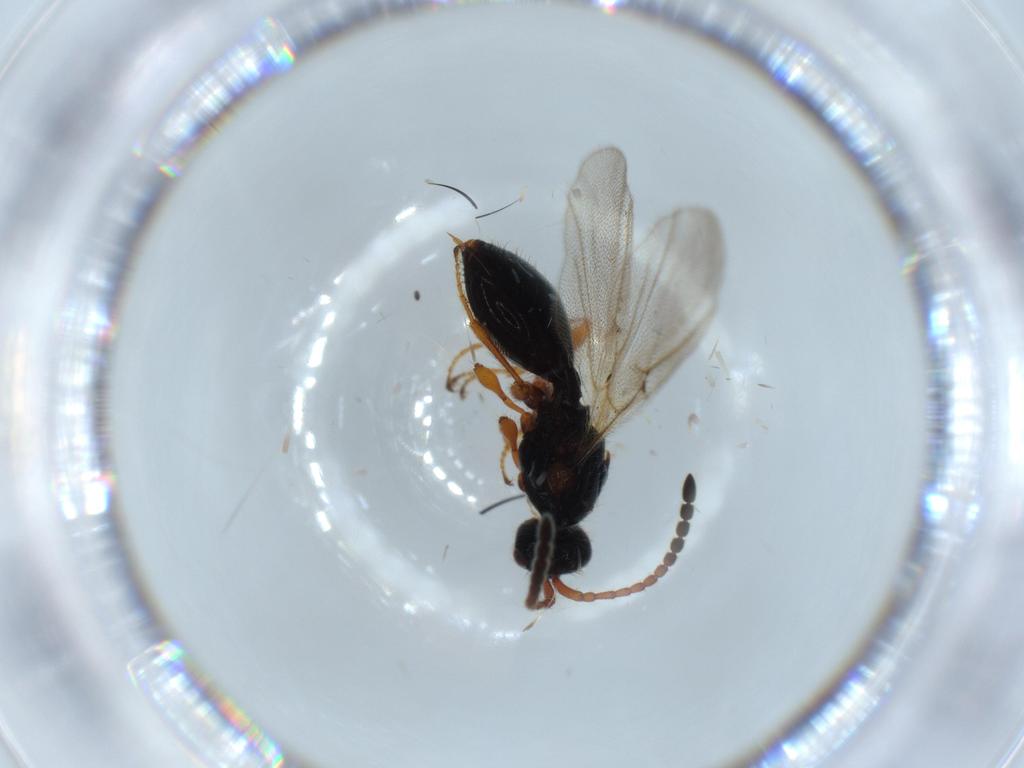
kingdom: Animalia
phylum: Arthropoda
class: Insecta
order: Hymenoptera
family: Diapriidae
